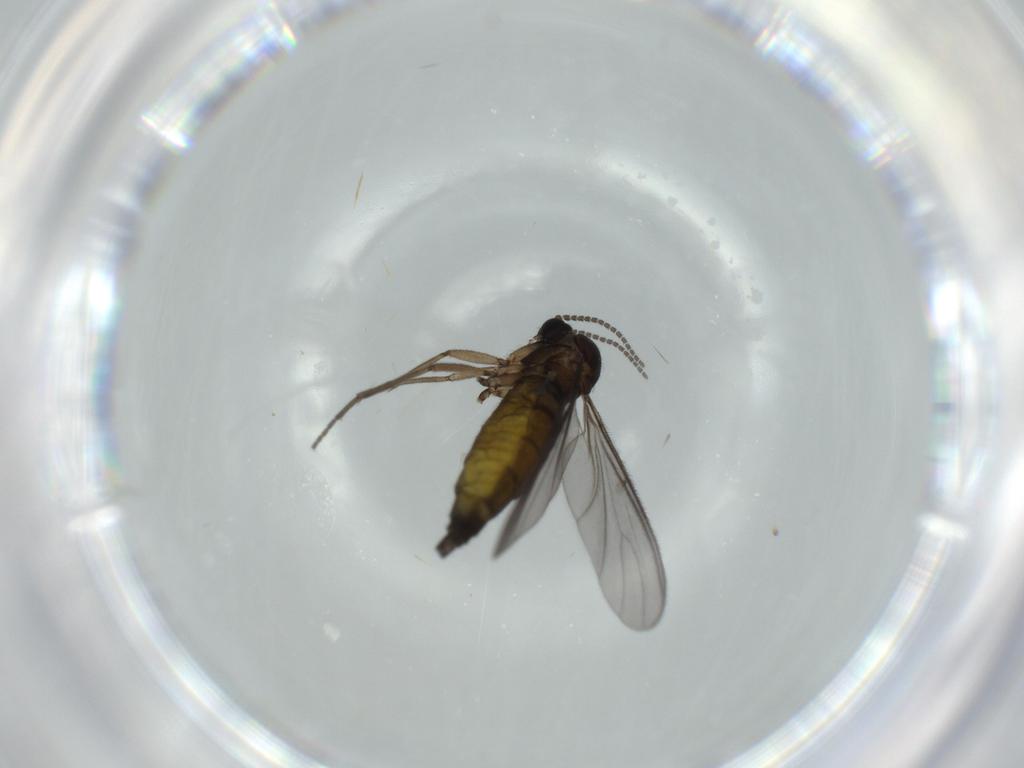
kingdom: Animalia
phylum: Arthropoda
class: Insecta
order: Diptera
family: Sciaridae
